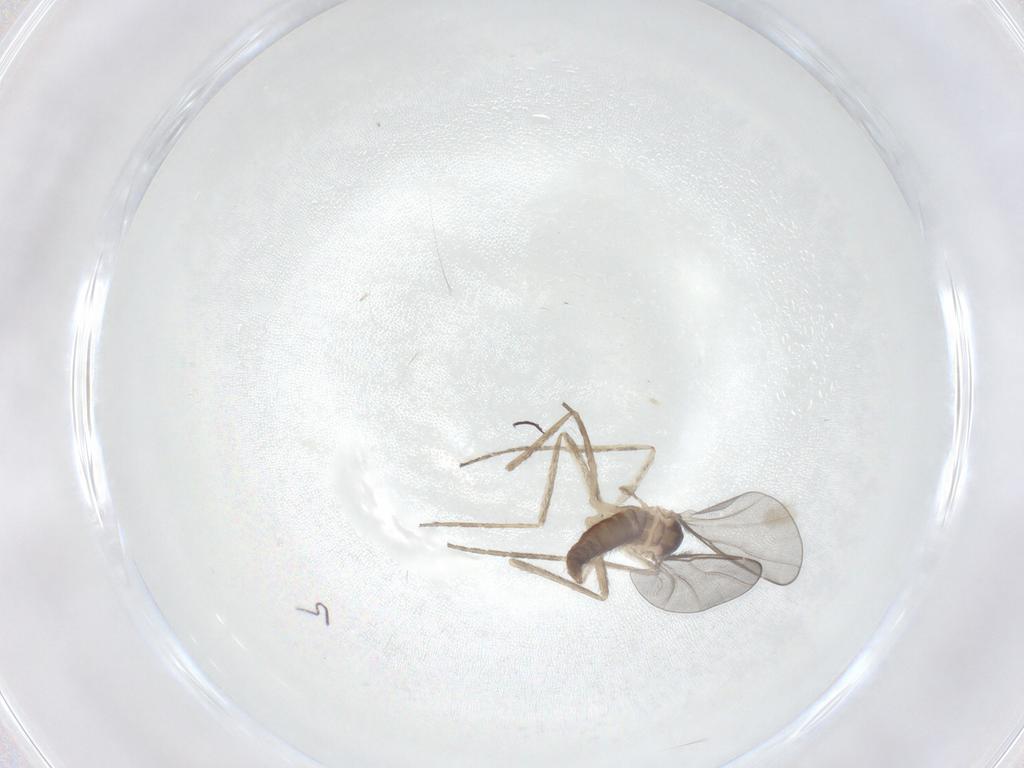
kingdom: Animalia
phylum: Arthropoda
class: Insecta
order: Diptera
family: Cecidomyiidae
